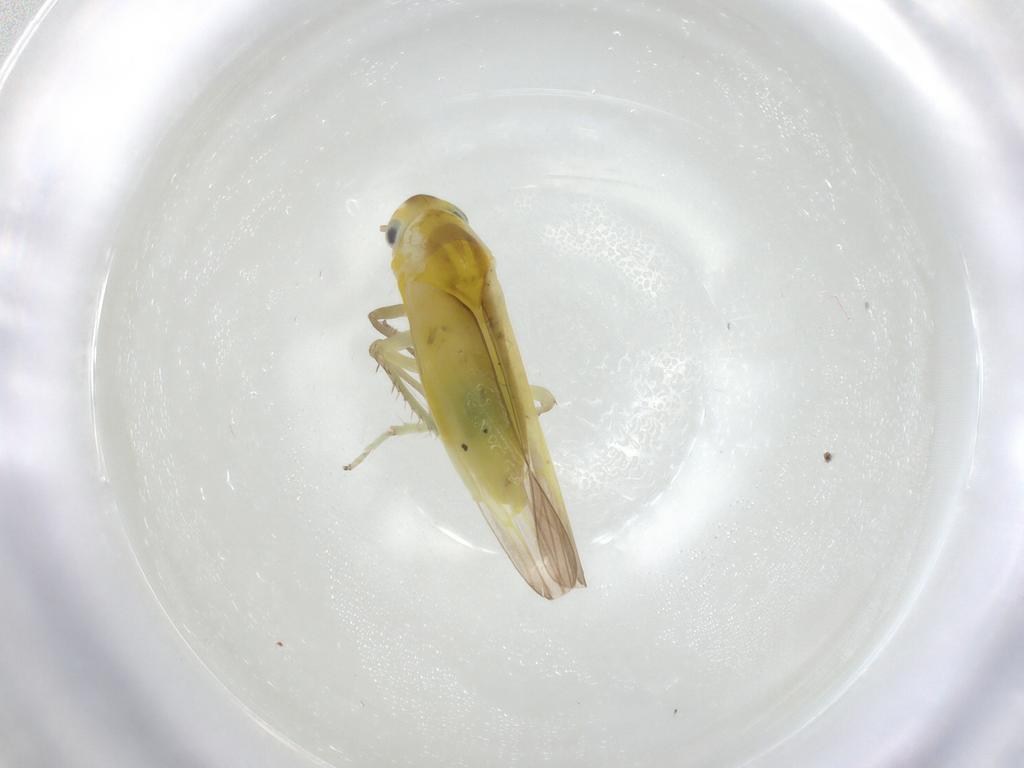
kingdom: Animalia
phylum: Arthropoda
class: Insecta
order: Hemiptera
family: Cicadellidae
